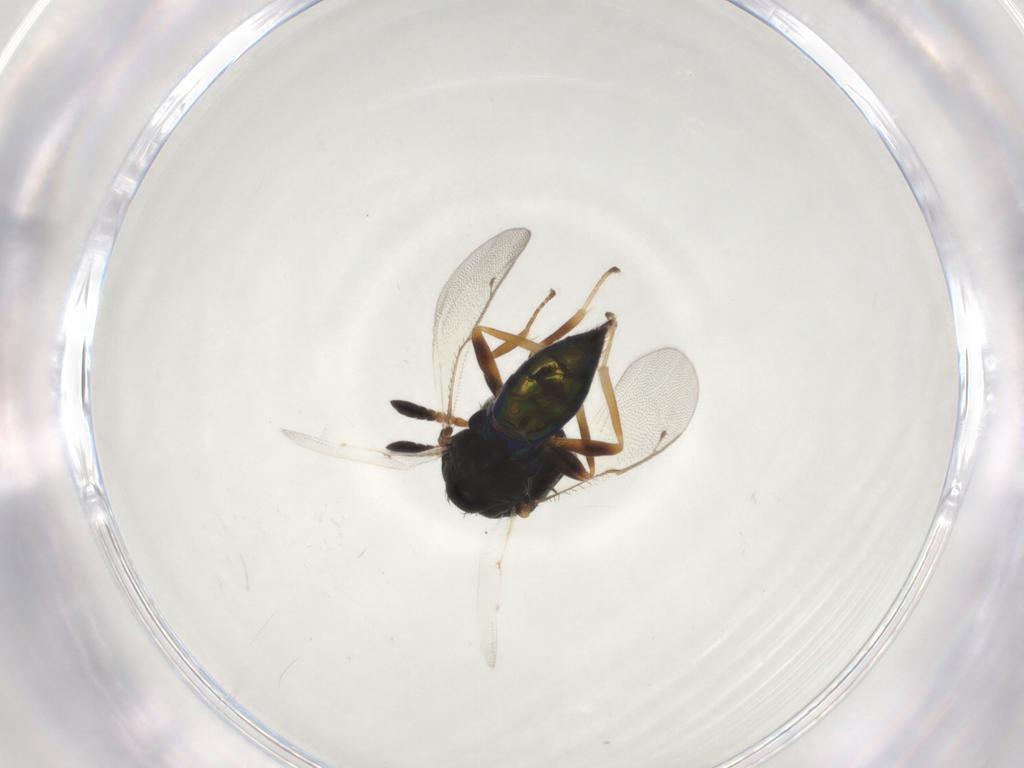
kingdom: Animalia
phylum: Arthropoda
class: Insecta
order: Hymenoptera
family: Pteromalidae
